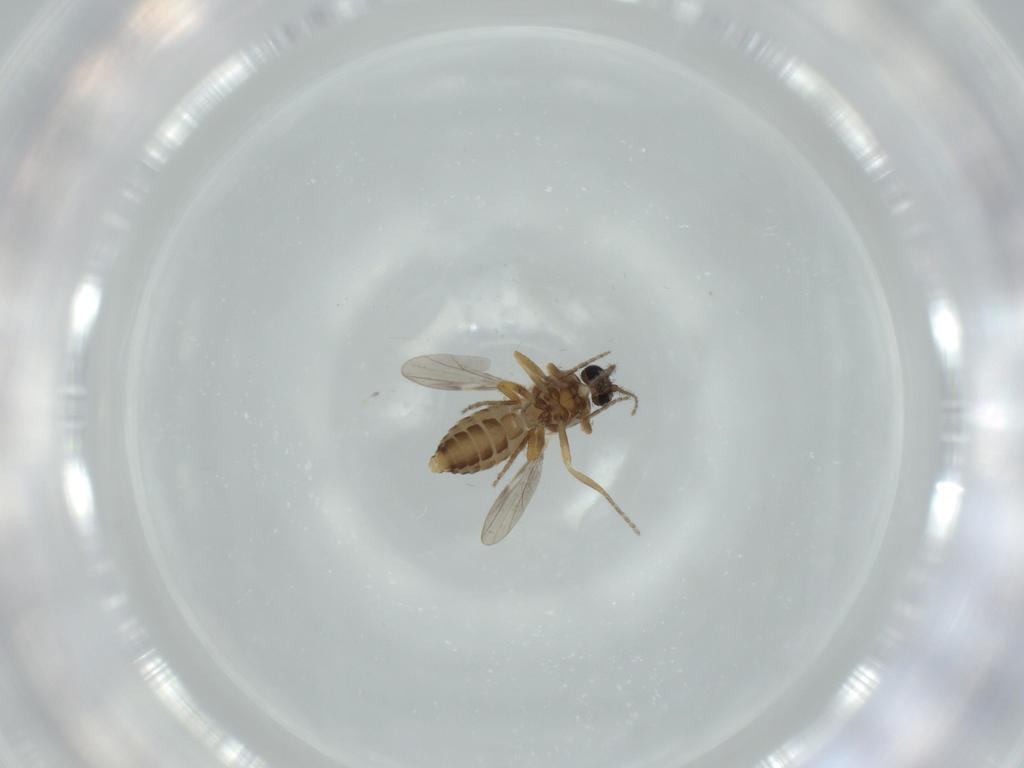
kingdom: Animalia
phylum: Arthropoda
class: Insecta
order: Diptera
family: Ceratopogonidae
